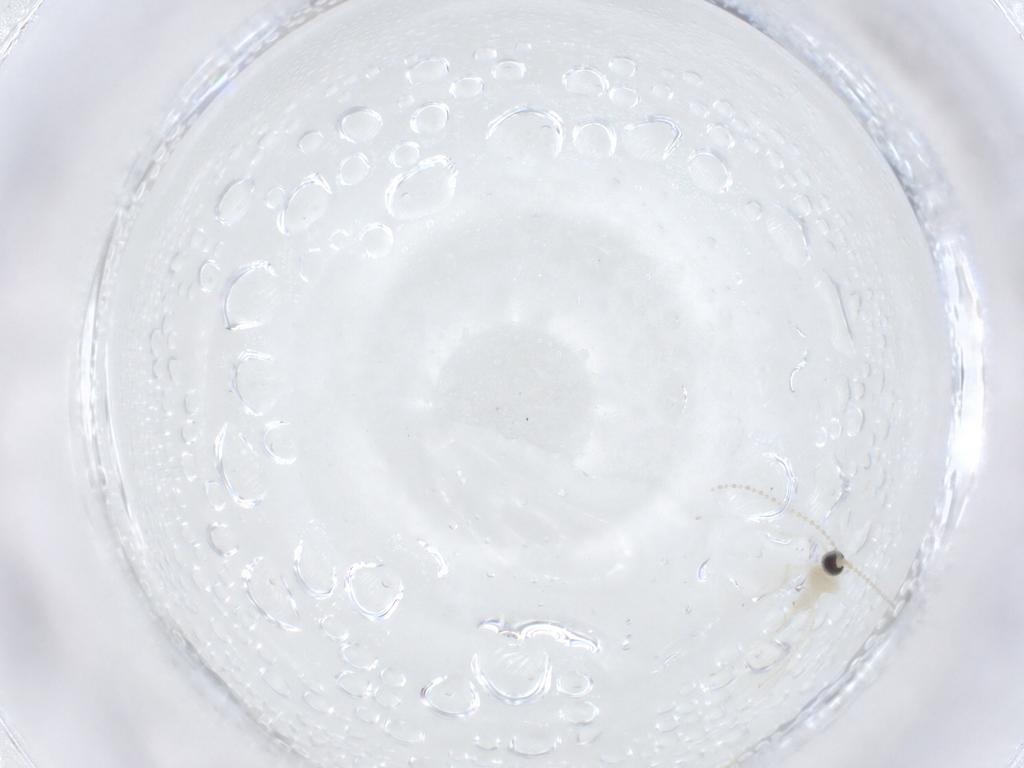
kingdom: Animalia
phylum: Arthropoda
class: Insecta
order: Diptera
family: Cecidomyiidae
